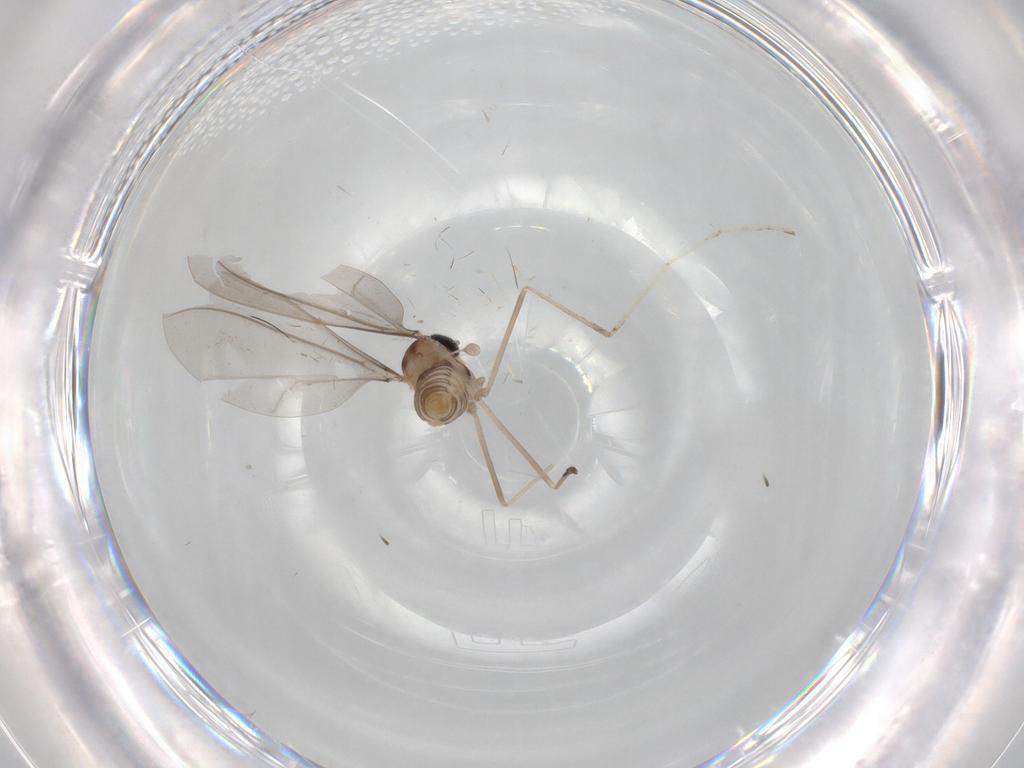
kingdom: Animalia
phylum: Arthropoda
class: Insecta
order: Diptera
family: Cecidomyiidae
